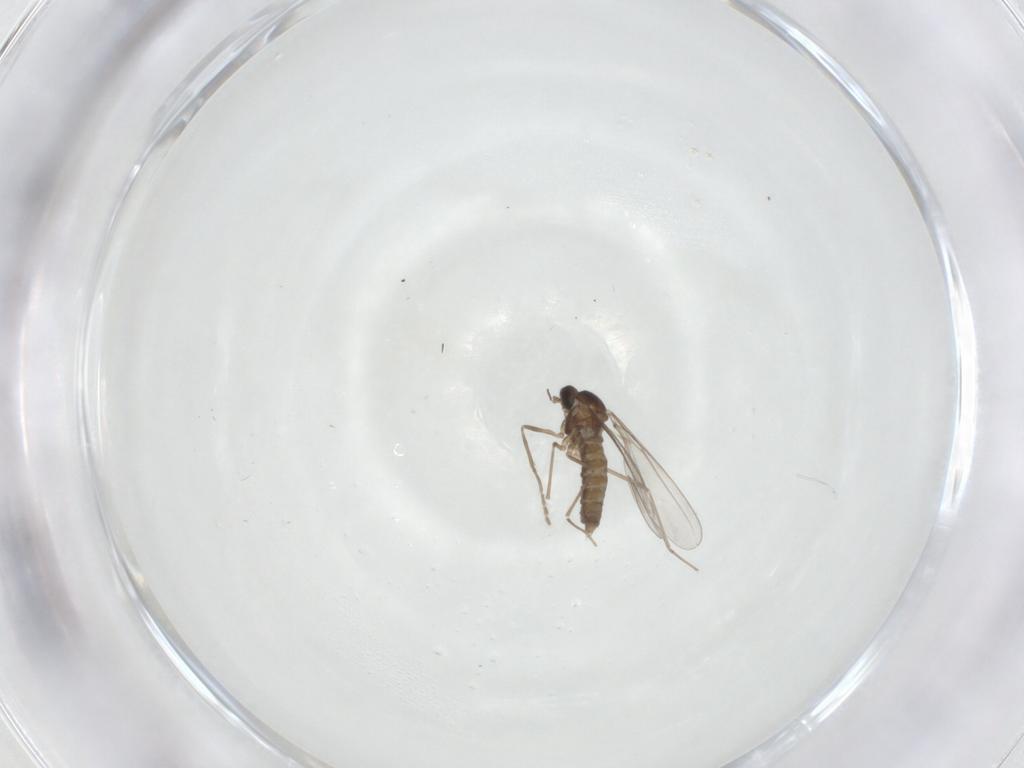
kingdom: Animalia
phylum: Arthropoda
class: Insecta
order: Diptera
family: Cecidomyiidae
